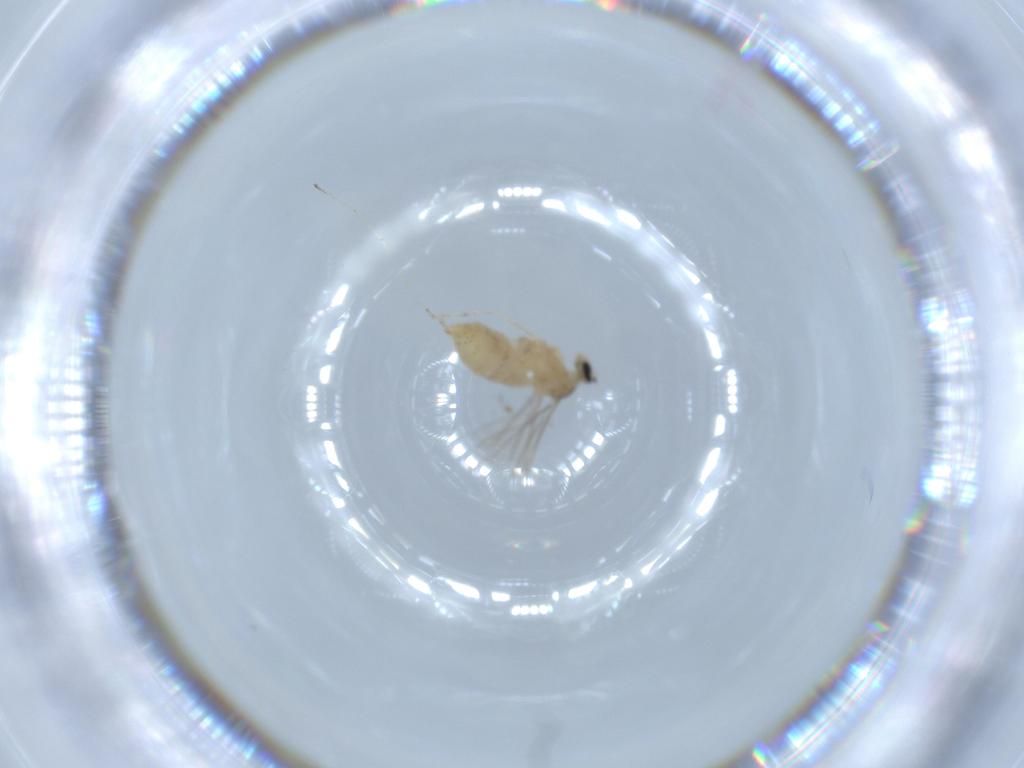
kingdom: Animalia
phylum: Arthropoda
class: Insecta
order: Diptera
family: Cecidomyiidae
